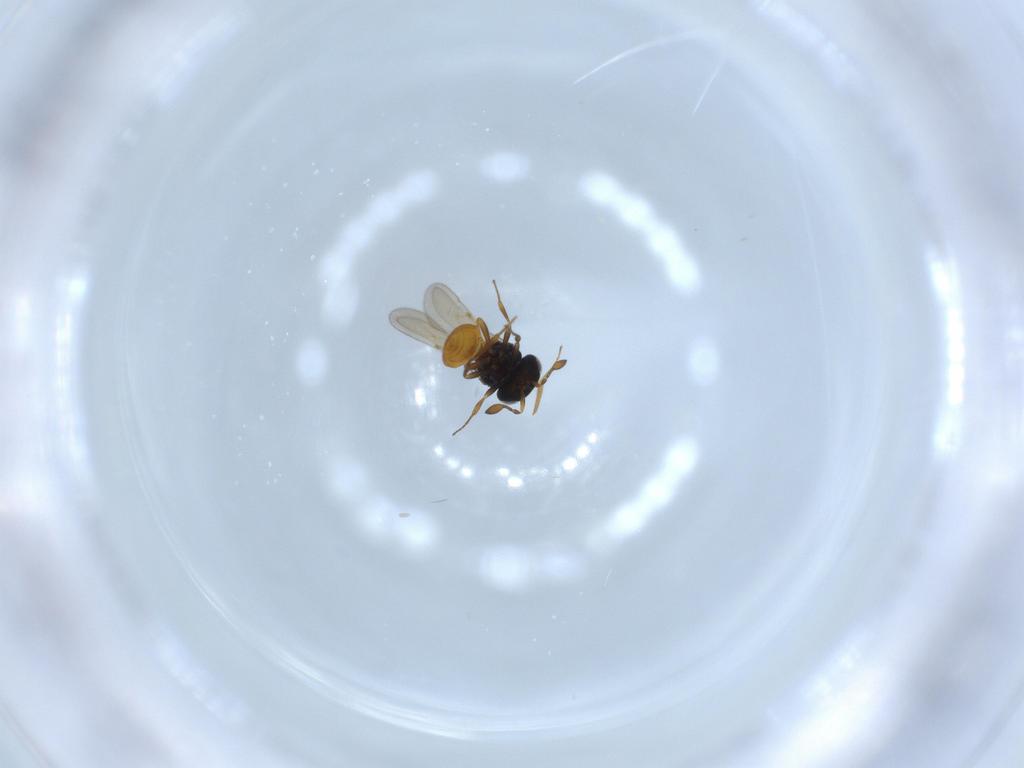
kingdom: Animalia
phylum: Arthropoda
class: Insecta
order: Hymenoptera
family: Scelionidae
